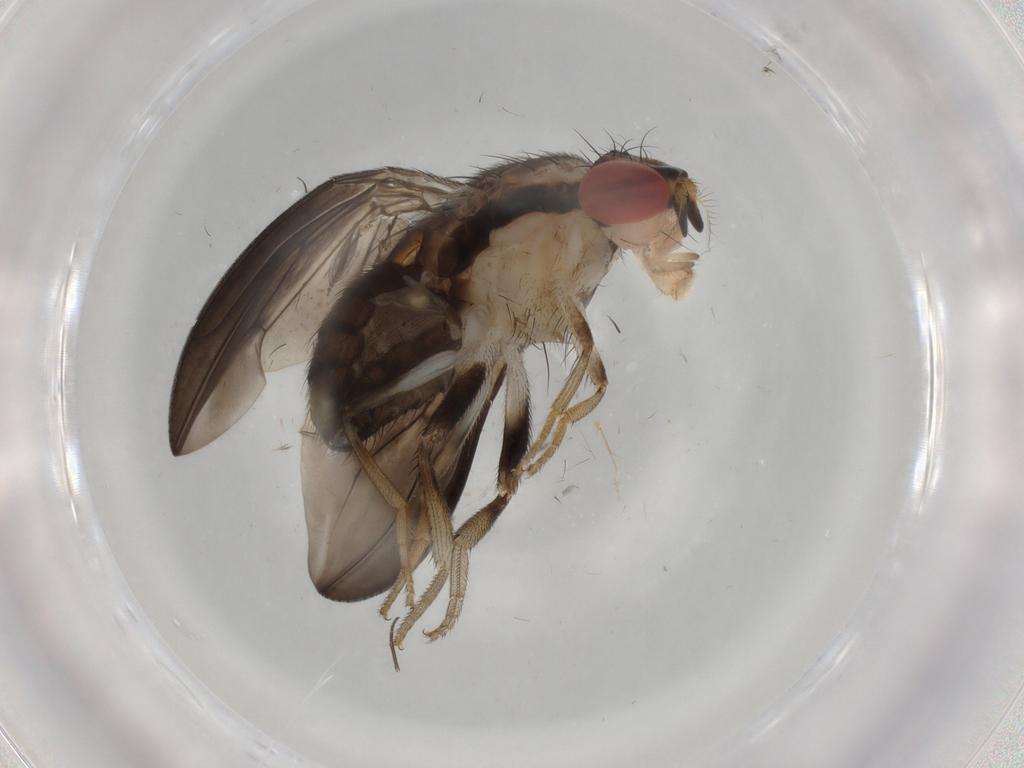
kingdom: Animalia
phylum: Arthropoda
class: Insecta
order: Diptera
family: Drosophilidae
